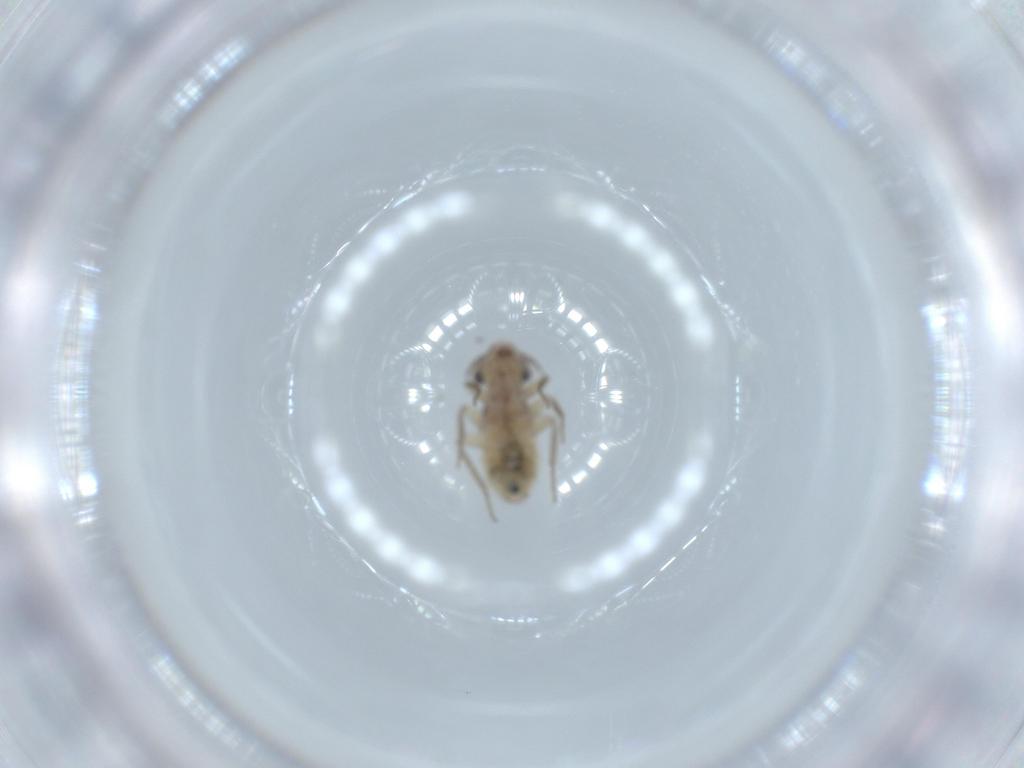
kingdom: Animalia
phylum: Arthropoda
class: Insecta
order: Psocodea
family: Lepidopsocidae
